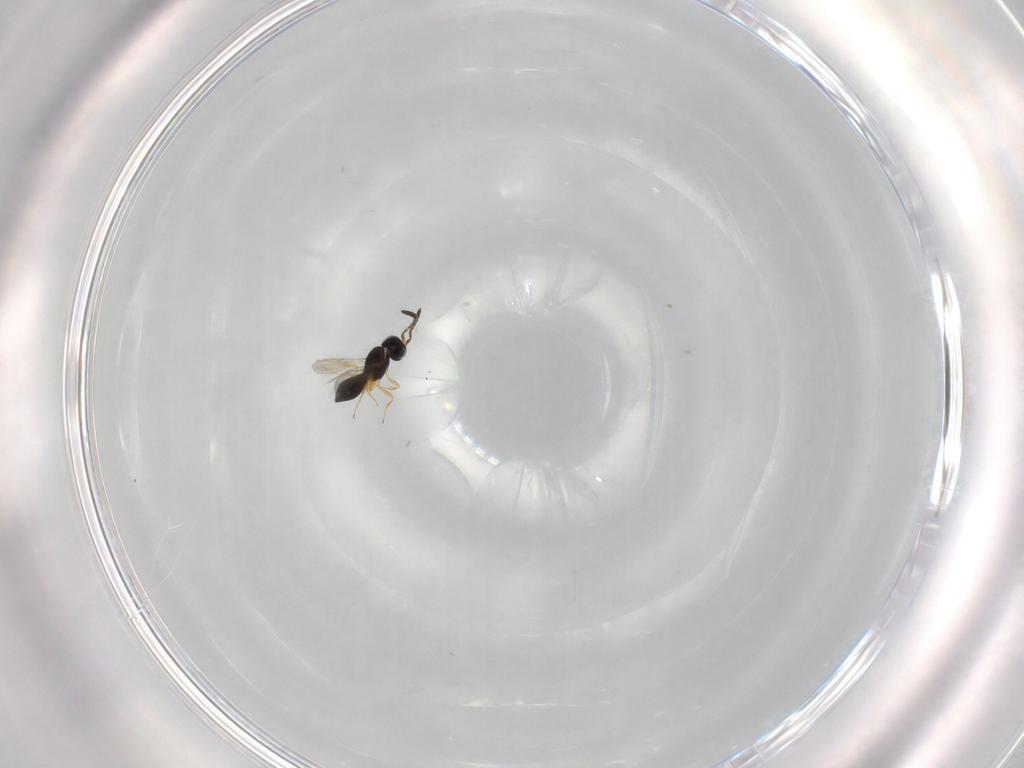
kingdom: Animalia
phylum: Arthropoda
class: Insecta
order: Hymenoptera
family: Scelionidae
